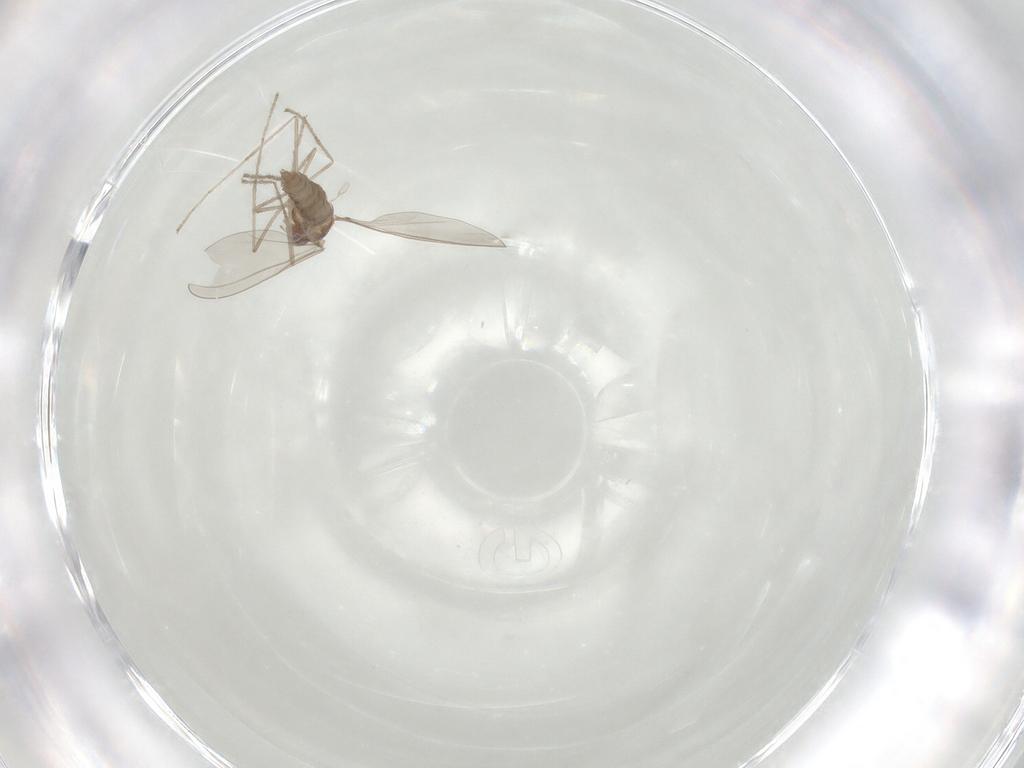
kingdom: Animalia
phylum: Arthropoda
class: Insecta
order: Diptera
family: Cecidomyiidae
